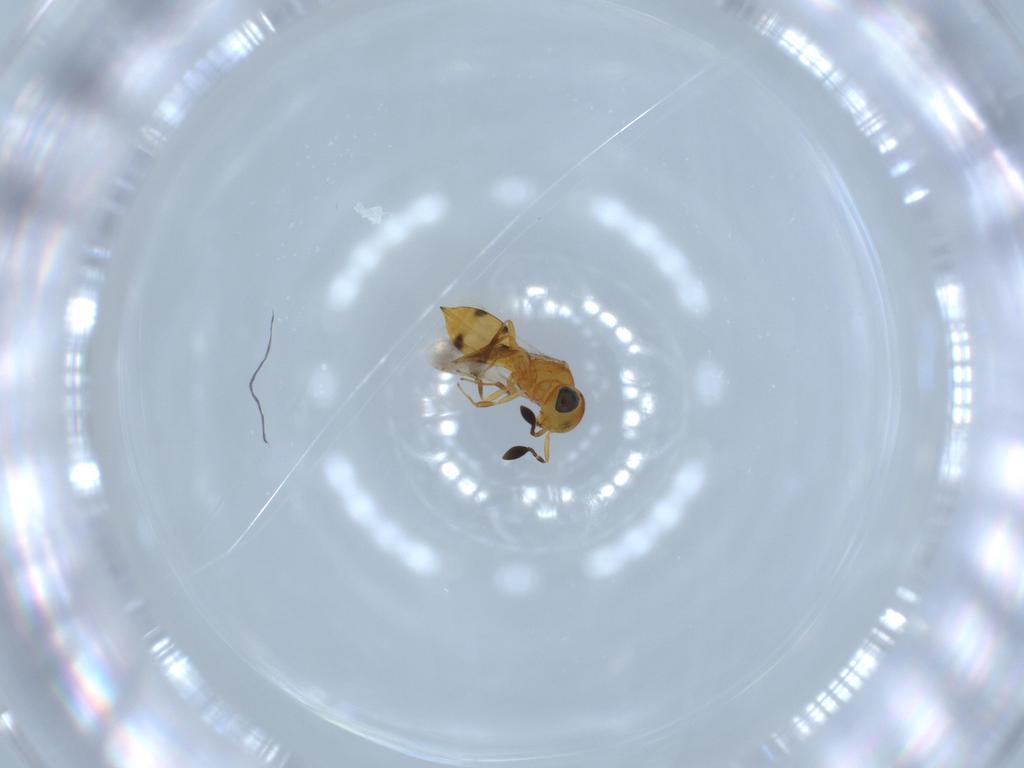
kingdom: Animalia
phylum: Arthropoda
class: Insecta
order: Hymenoptera
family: Scelionidae
